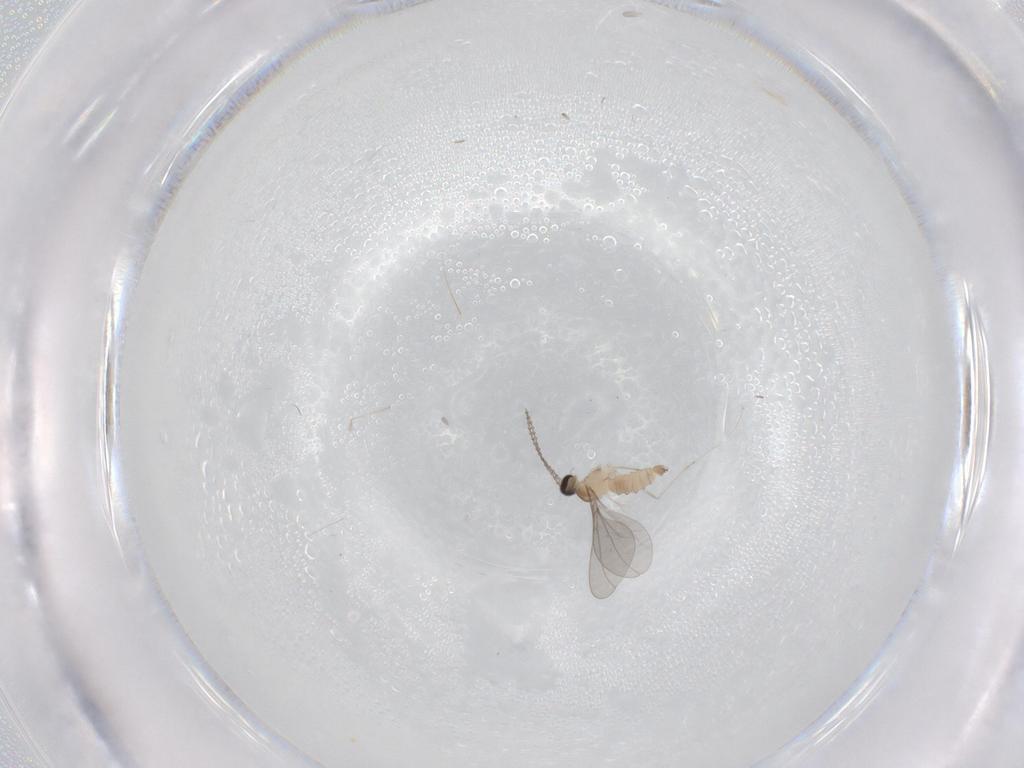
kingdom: Animalia
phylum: Arthropoda
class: Insecta
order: Diptera
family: Cecidomyiidae
